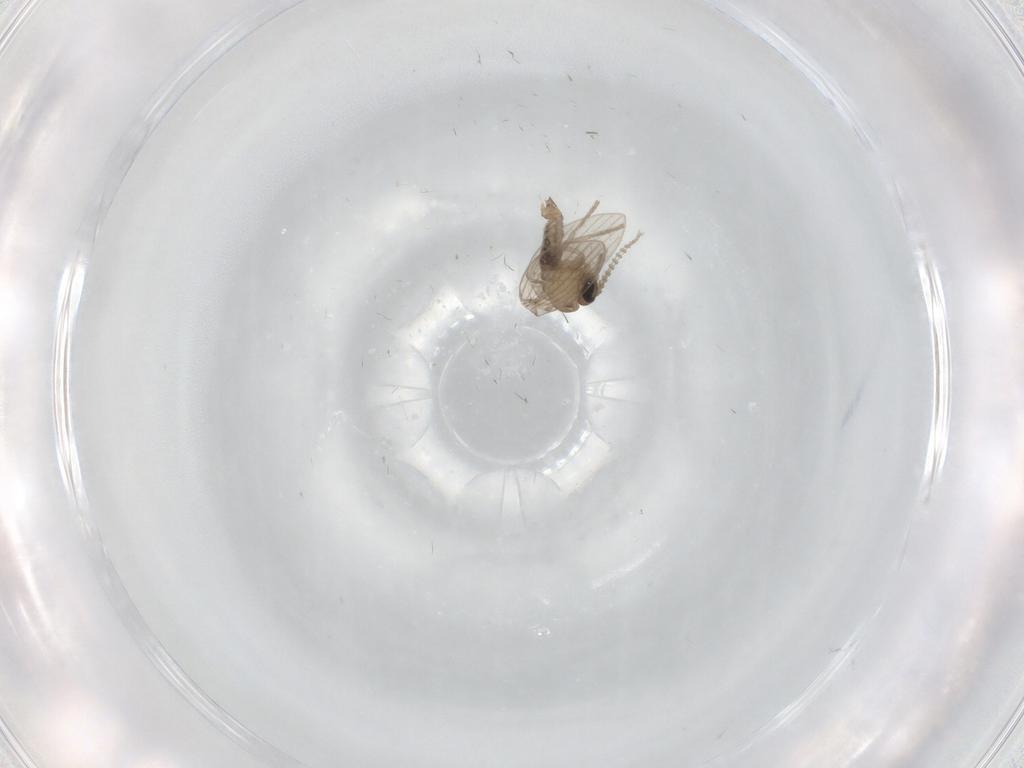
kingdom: Animalia
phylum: Arthropoda
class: Insecta
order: Diptera
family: Psychodidae
